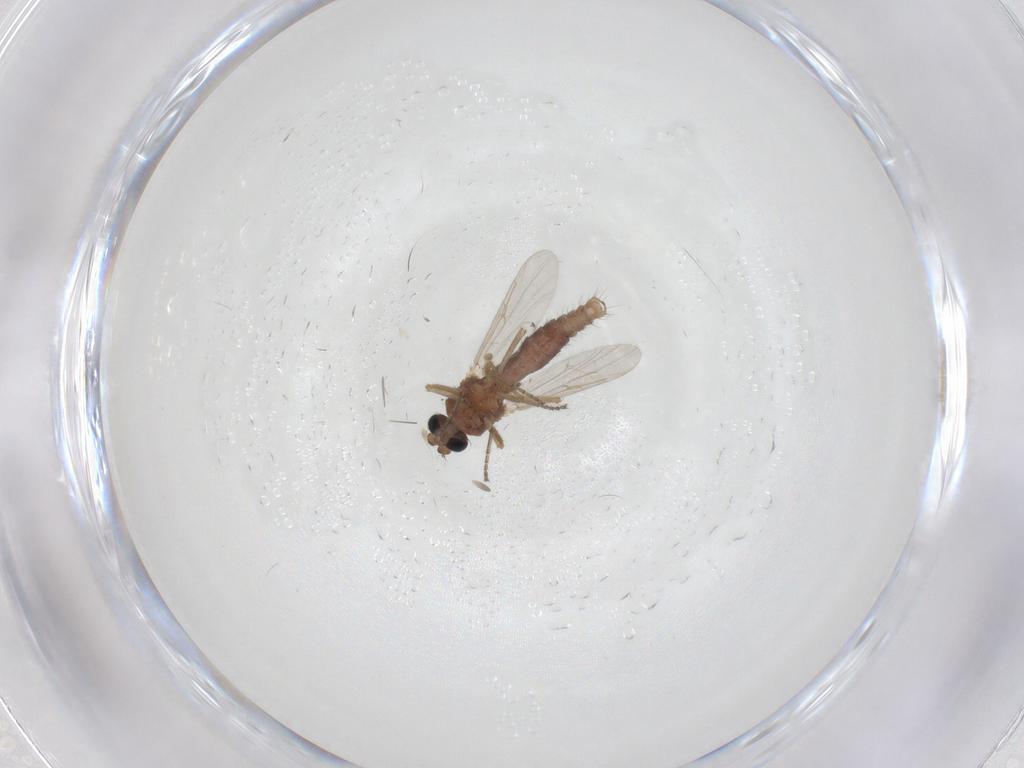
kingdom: Animalia
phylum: Arthropoda
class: Insecta
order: Diptera
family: Ceratopogonidae
